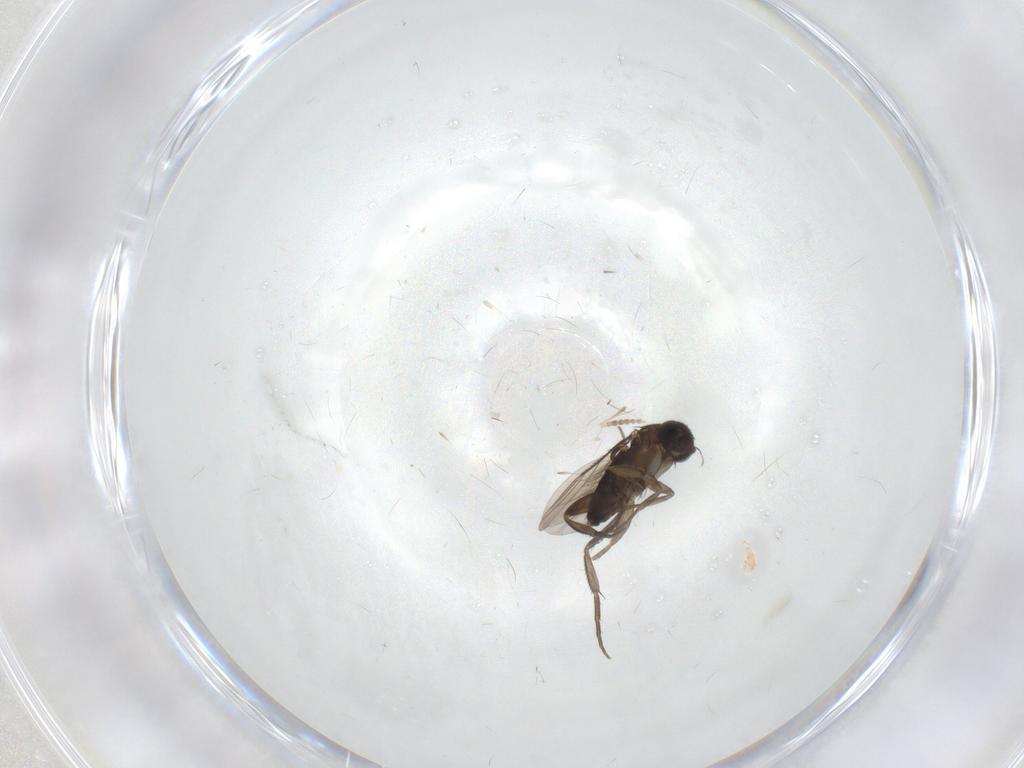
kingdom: Animalia
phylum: Arthropoda
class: Insecta
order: Diptera
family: Phoridae
